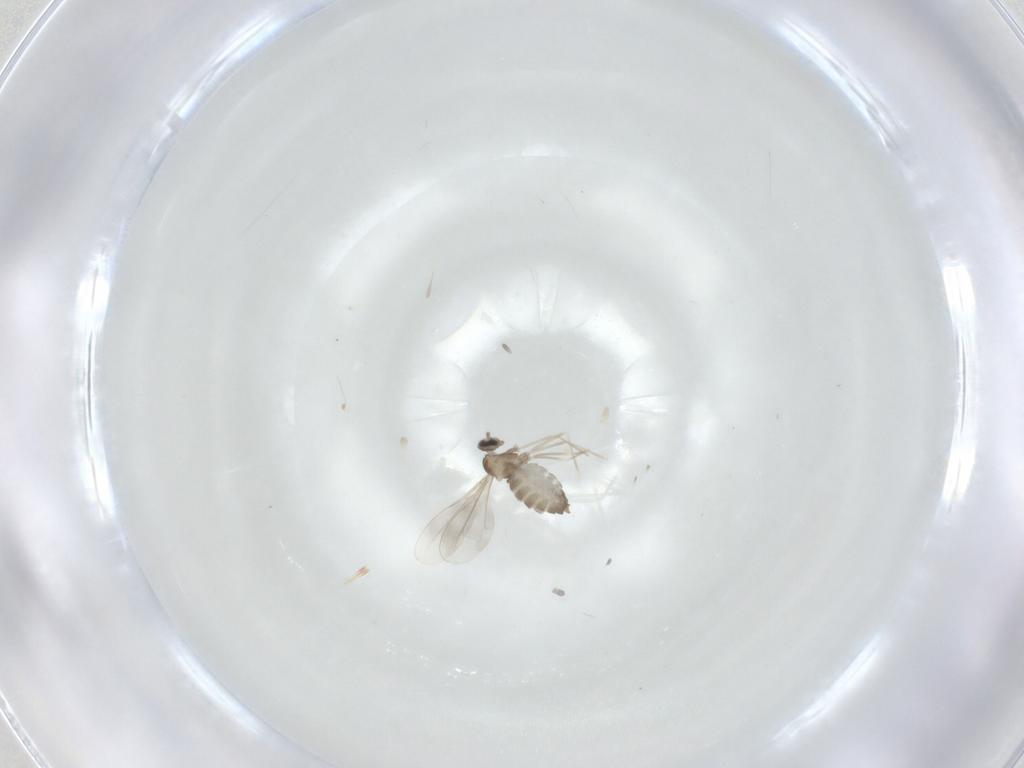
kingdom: Animalia
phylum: Arthropoda
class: Insecta
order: Diptera
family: Cecidomyiidae
